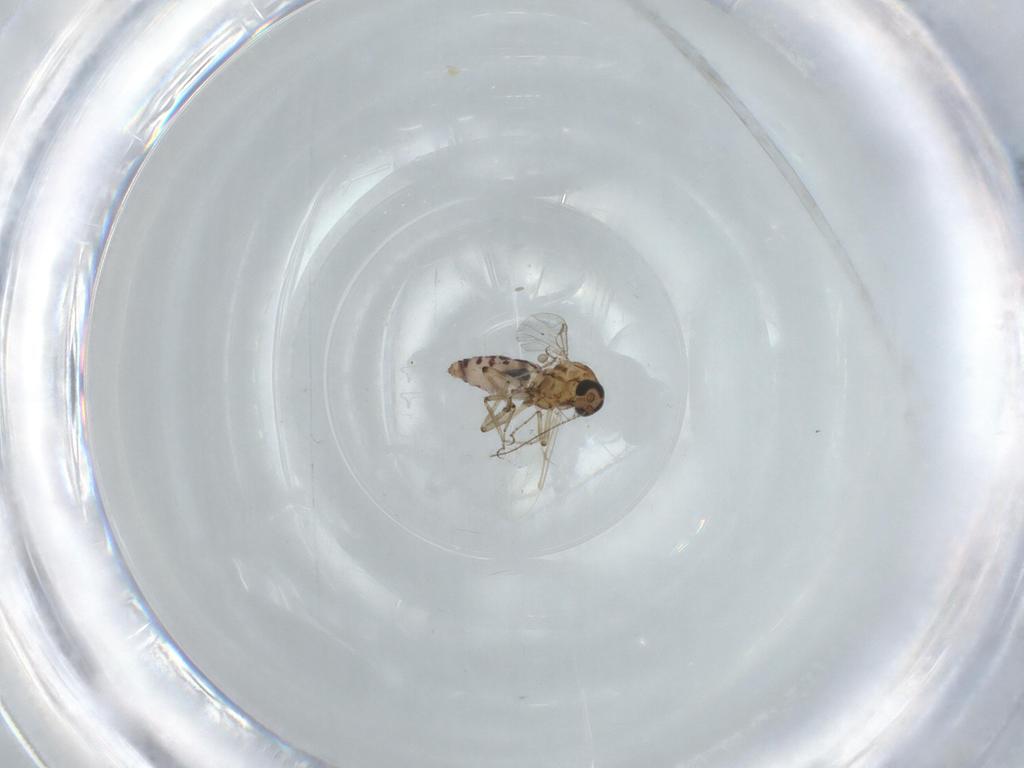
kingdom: Animalia
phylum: Arthropoda
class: Insecta
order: Diptera
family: Ceratopogonidae
